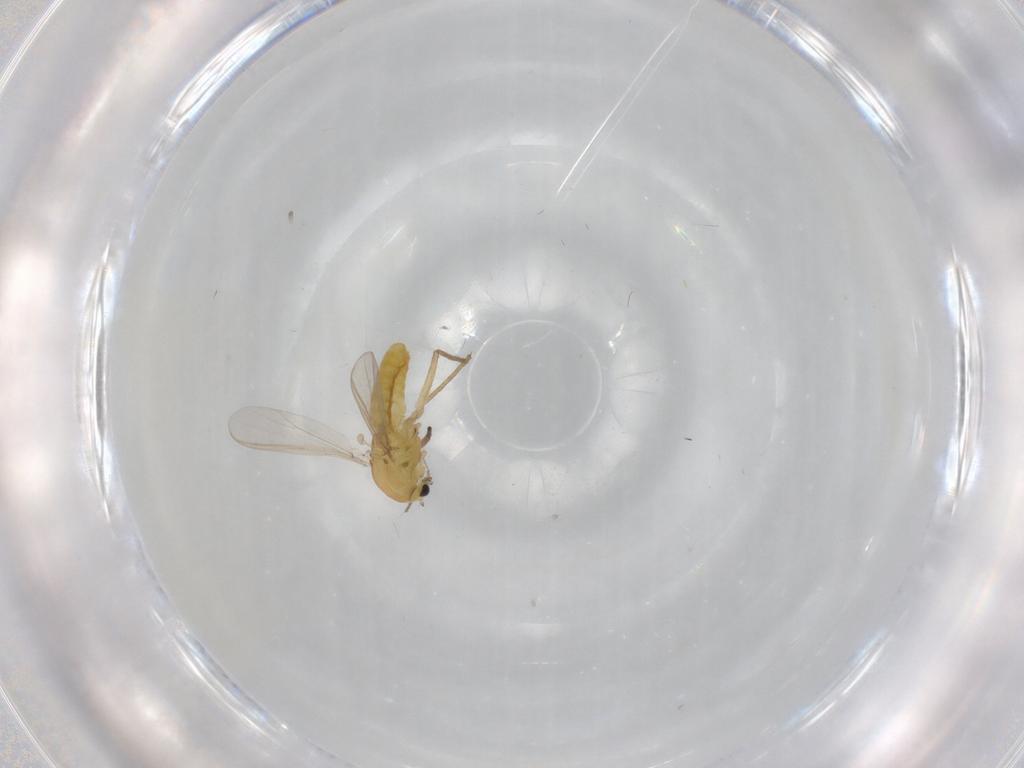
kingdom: Animalia
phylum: Arthropoda
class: Insecta
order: Diptera
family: Chironomidae
